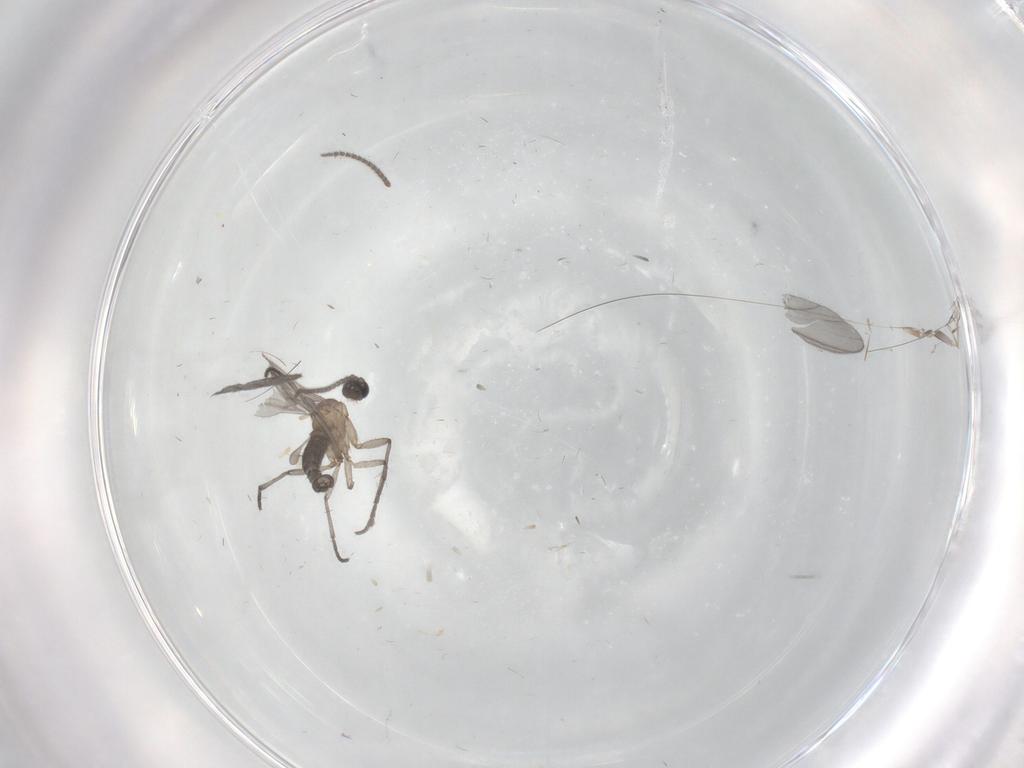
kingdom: Animalia
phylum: Arthropoda
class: Insecta
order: Diptera
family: Sciaridae
